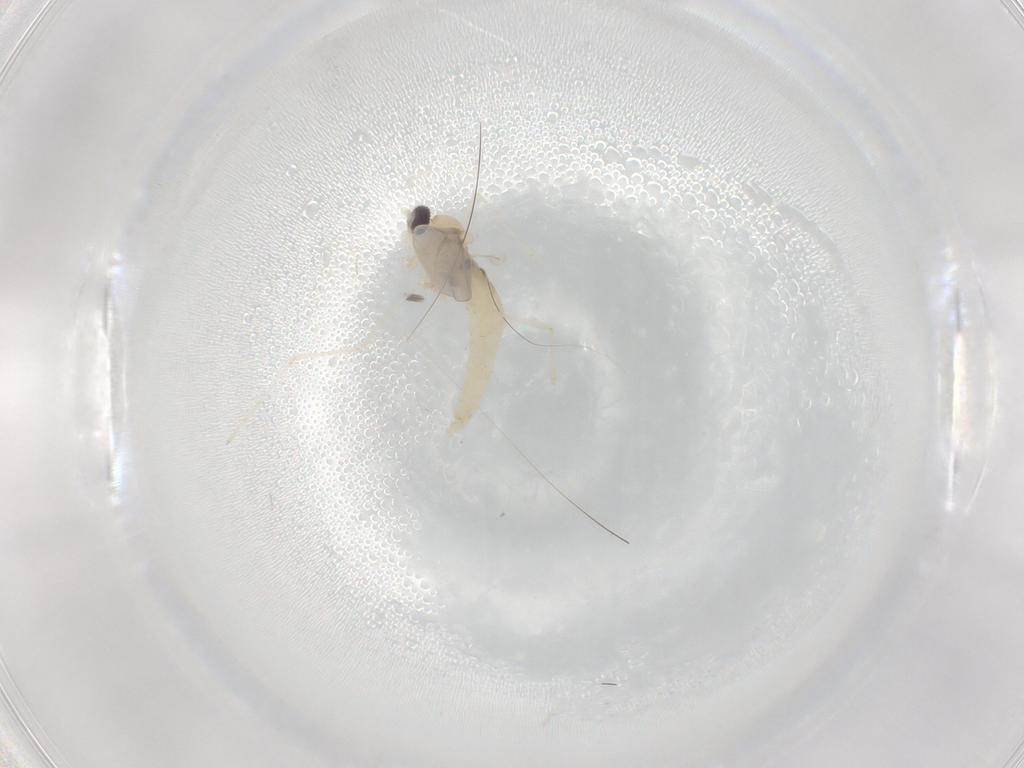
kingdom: Animalia
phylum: Arthropoda
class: Insecta
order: Diptera
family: Cecidomyiidae
